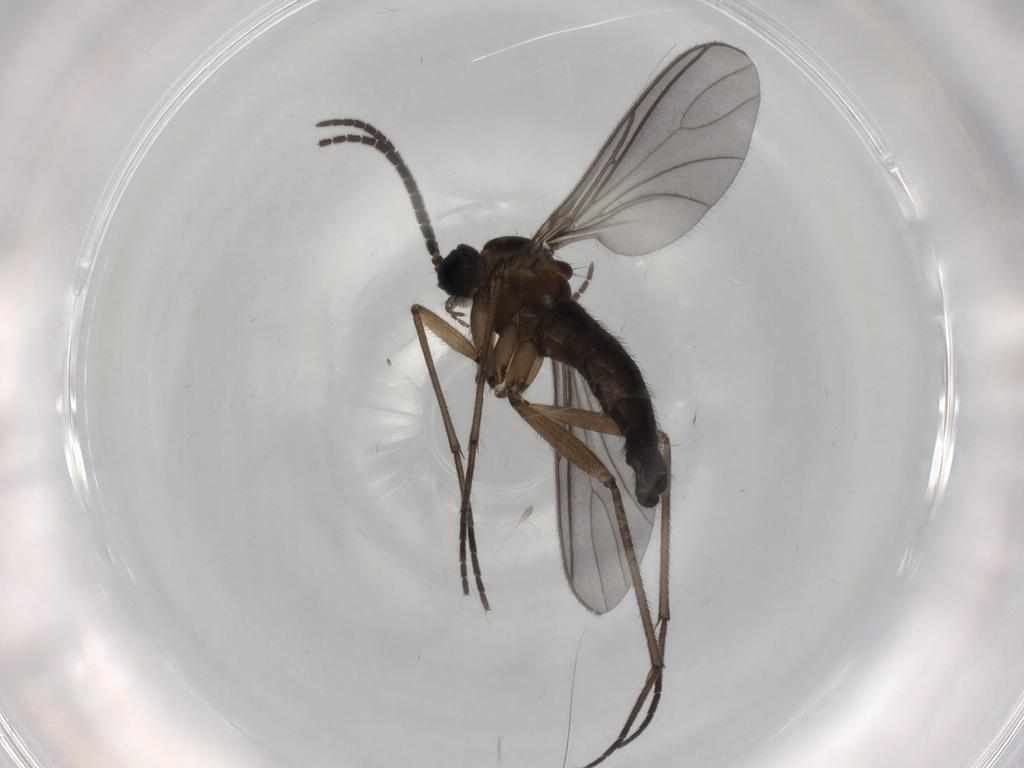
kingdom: Animalia
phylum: Arthropoda
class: Insecta
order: Diptera
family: Sciaridae
